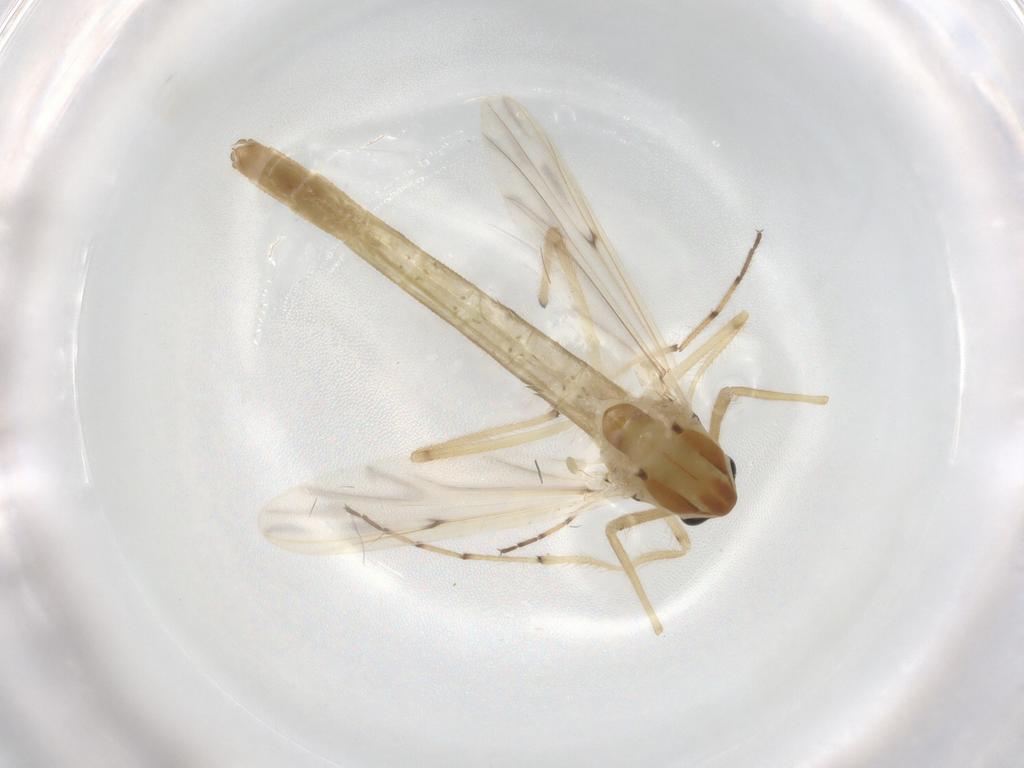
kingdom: Animalia
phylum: Arthropoda
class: Insecta
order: Diptera
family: Chironomidae
